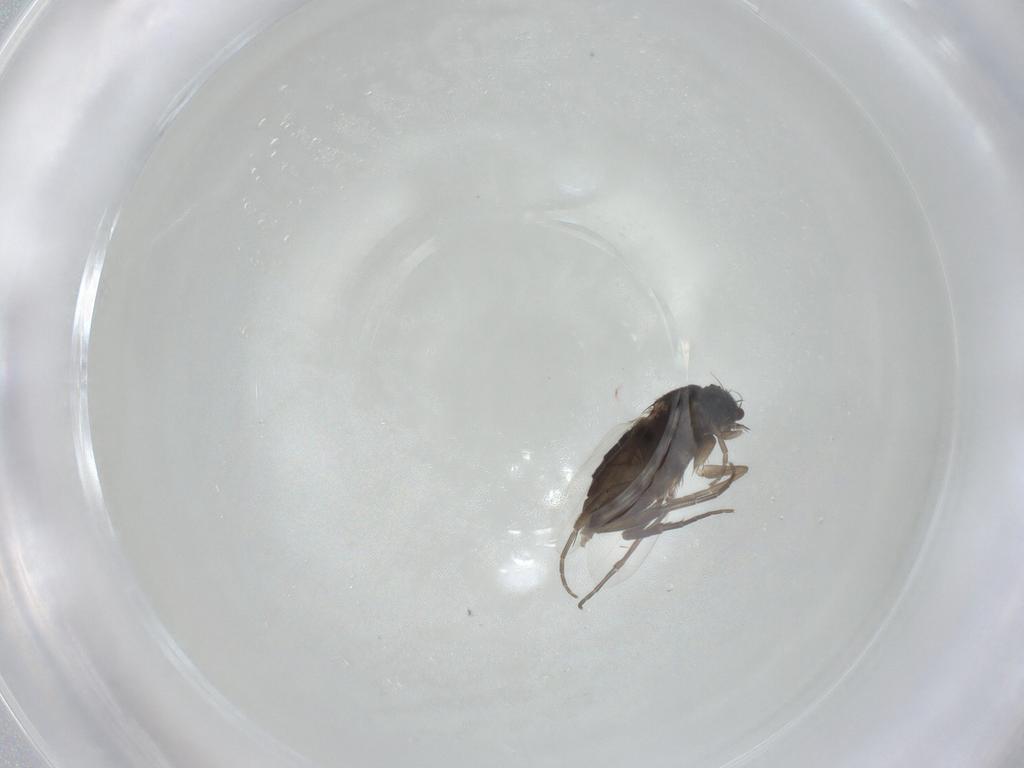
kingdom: Animalia
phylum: Arthropoda
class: Insecta
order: Diptera
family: Phoridae
